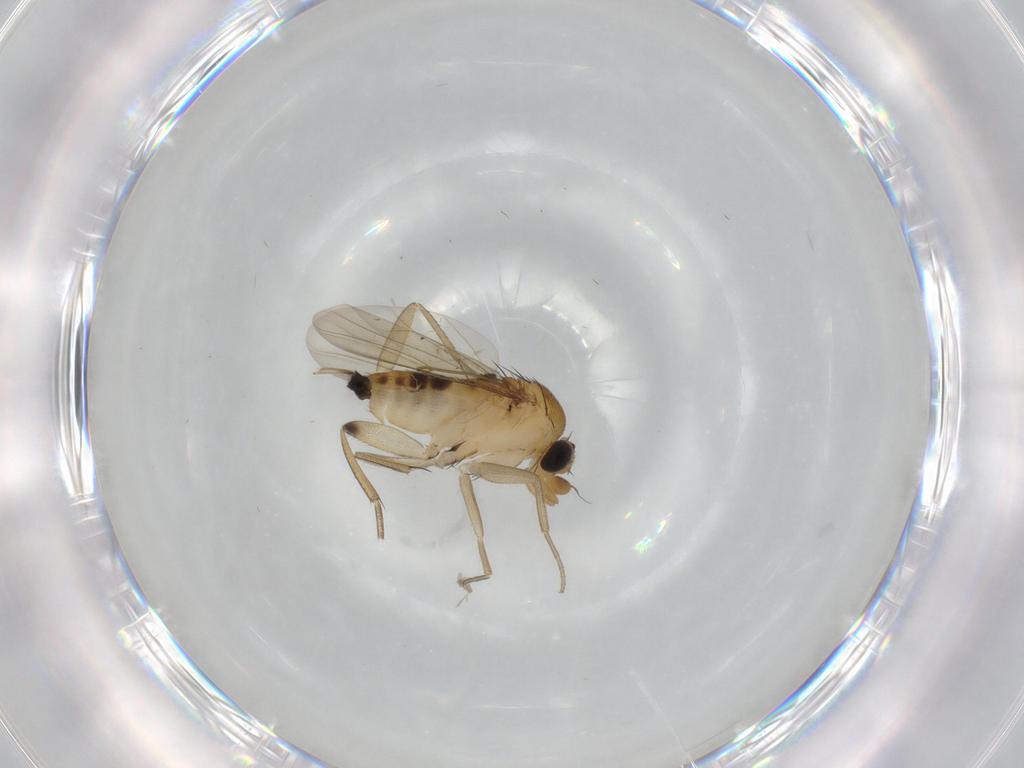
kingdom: Animalia
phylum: Arthropoda
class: Insecta
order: Diptera
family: Phoridae
